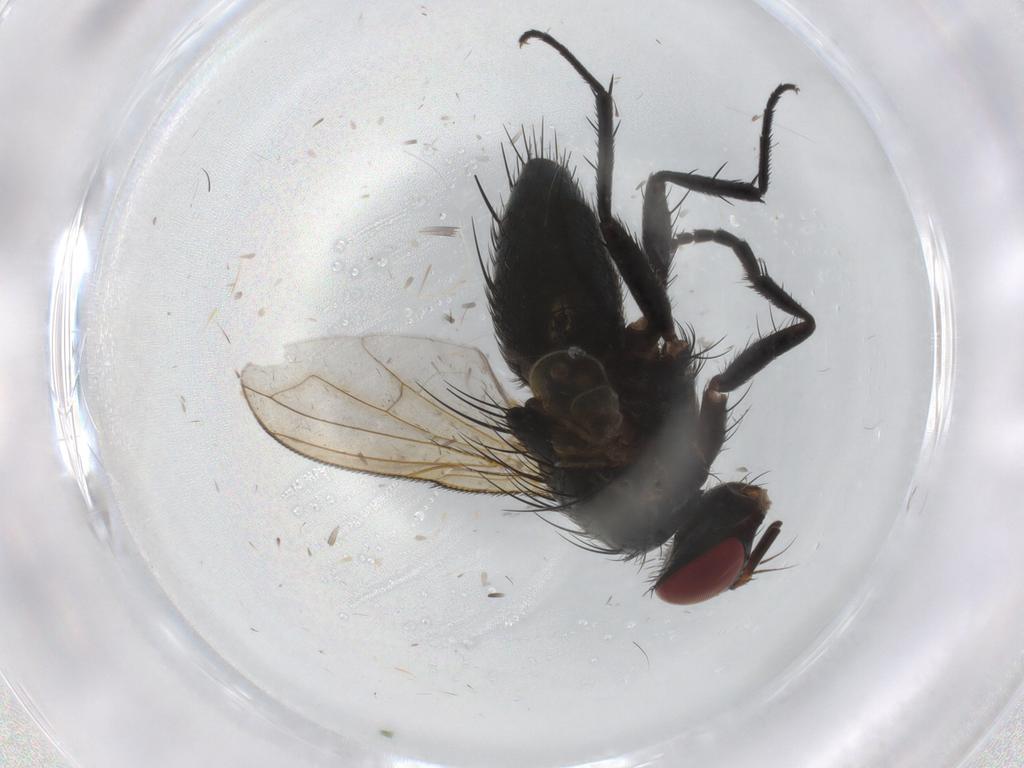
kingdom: Animalia
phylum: Arthropoda
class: Insecta
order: Diptera
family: Tachinidae
